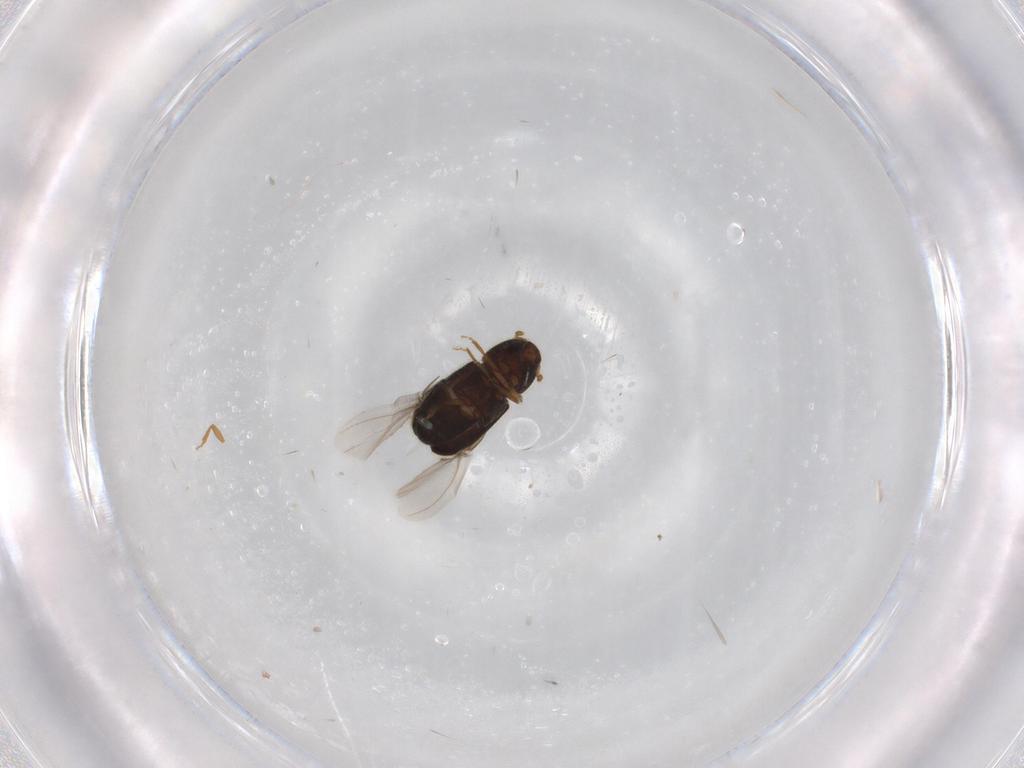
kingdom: Animalia
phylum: Arthropoda
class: Insecta
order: Coleoptera
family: Curculionidae
